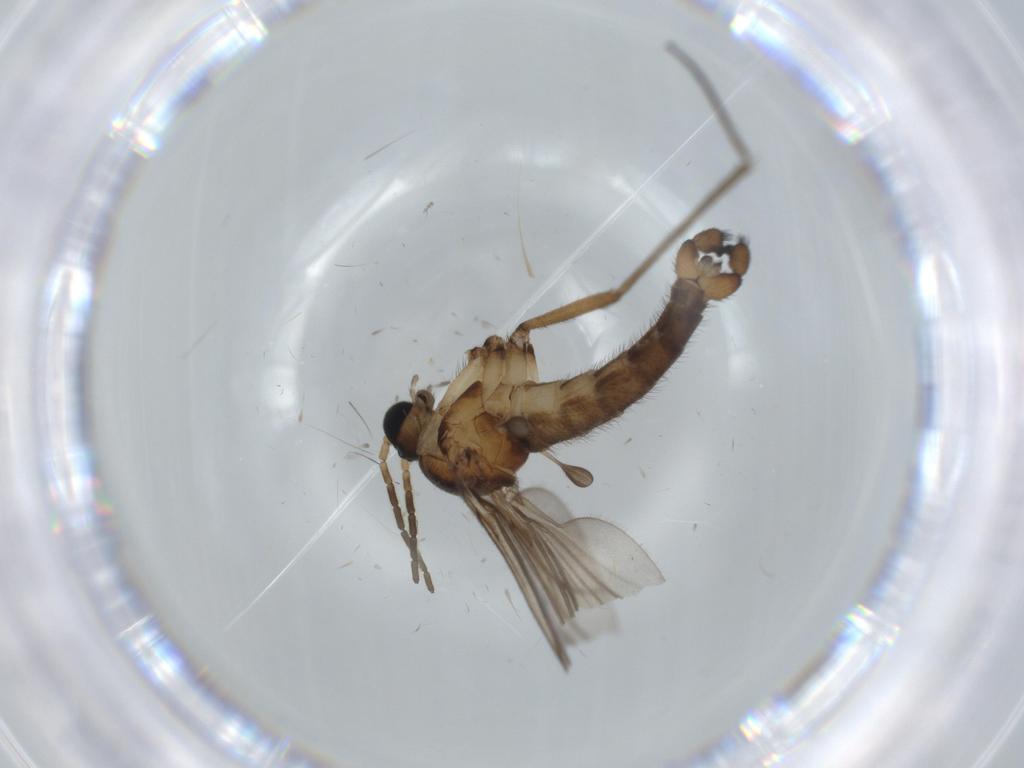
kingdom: Animalia
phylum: Arthropoda
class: Insecta
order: Diptera
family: Sciaridae
